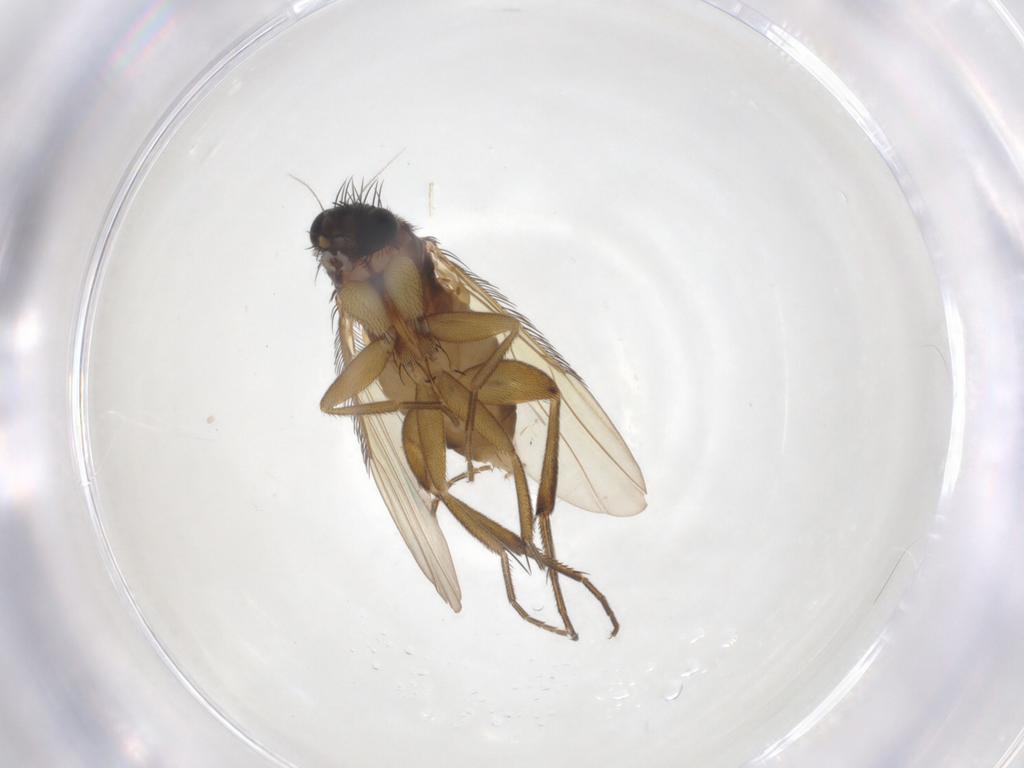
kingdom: Animalia
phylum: Arthropoda
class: Insecta
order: Diptera
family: Phoridae
